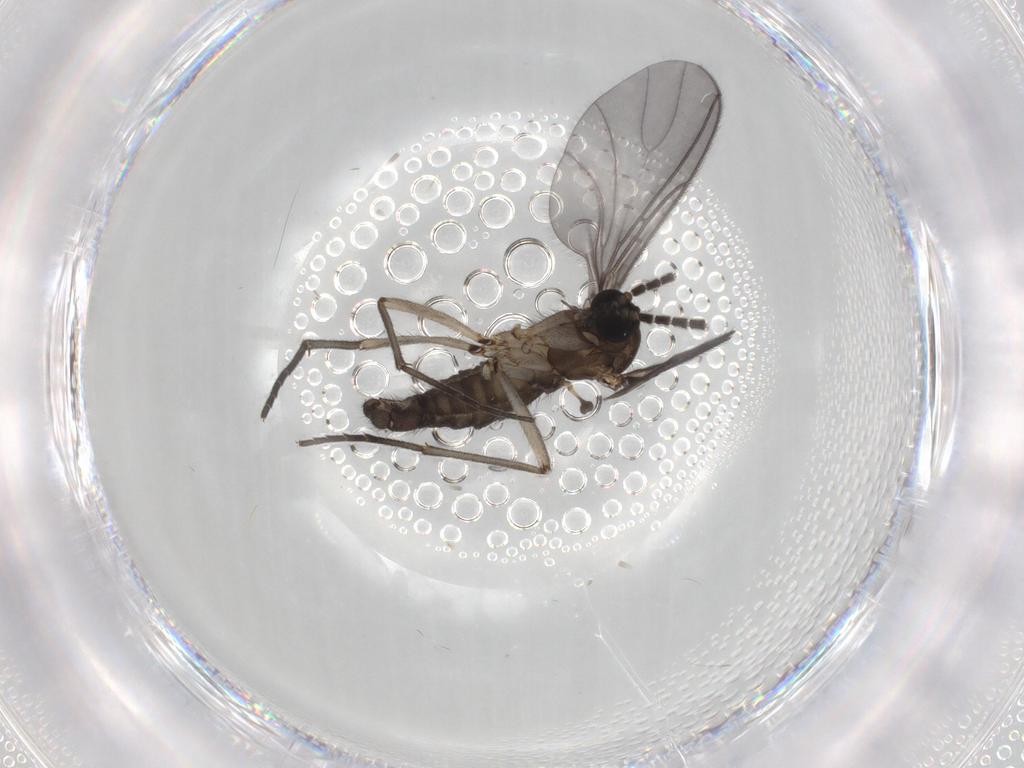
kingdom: Animalia
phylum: Arthropoda
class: Insecta
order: Diptera
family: Sciaridae
